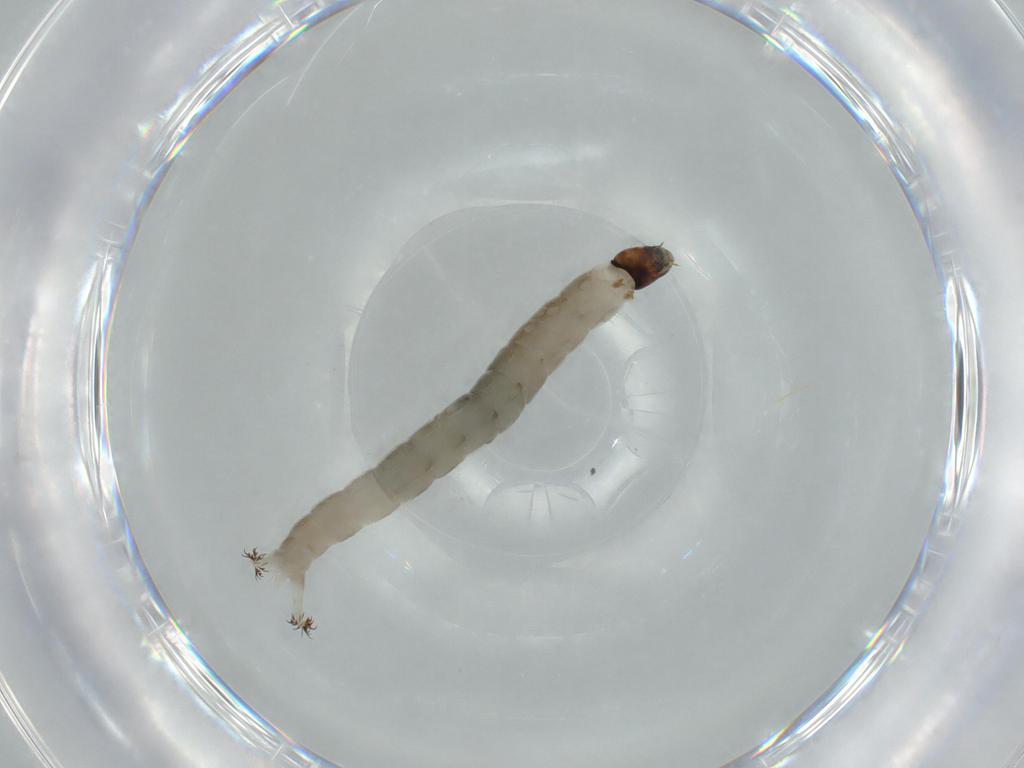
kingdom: Animalia
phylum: Arthropoda
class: Insecta
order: Diptera
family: Chironomidae
